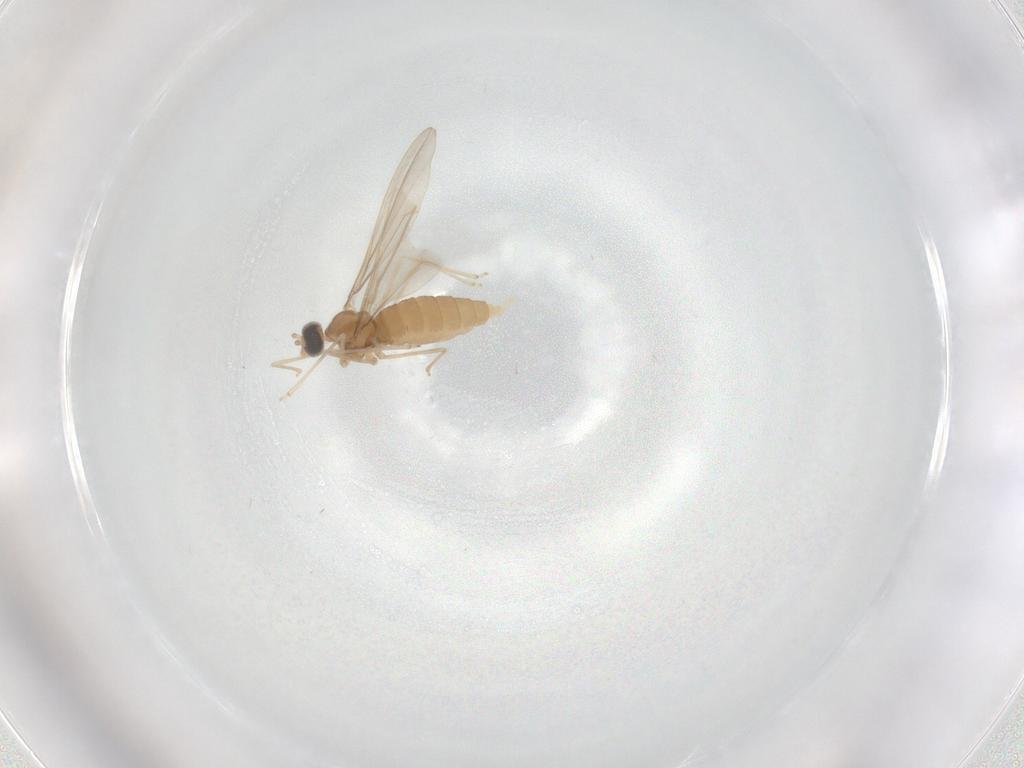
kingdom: Animalia
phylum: Arthropoda
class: Insecta
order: Diptera
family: Cecidomyiidae
